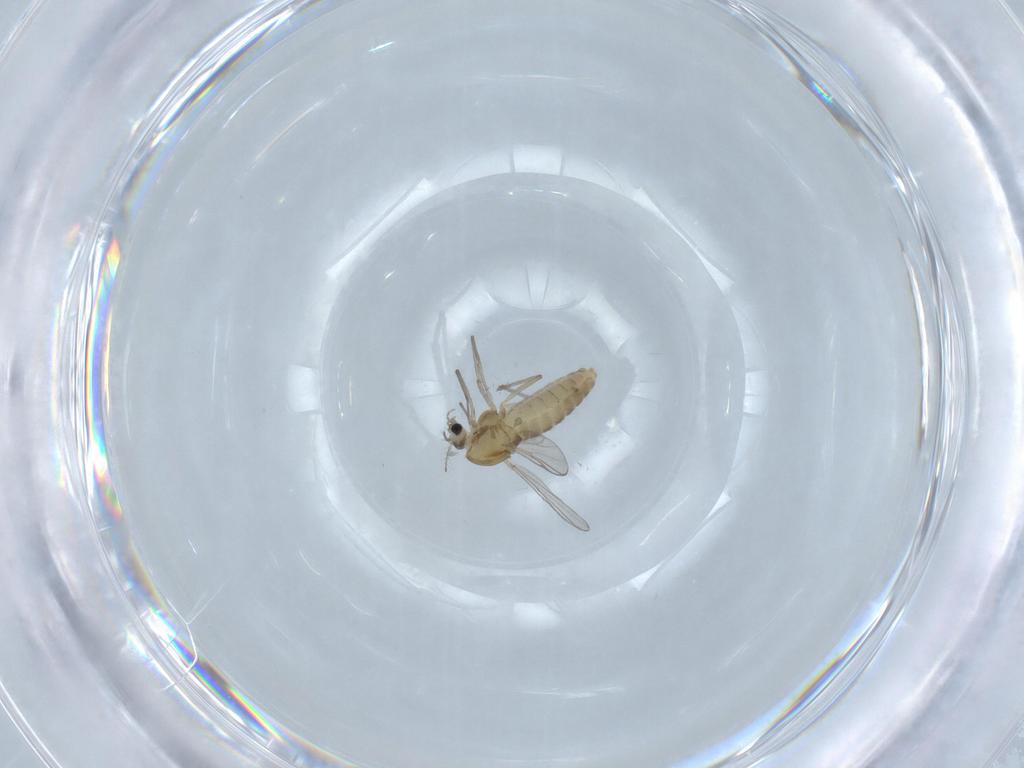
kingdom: Animalia
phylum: Arthropoda
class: Insecta
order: Diptera
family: Chironomidae
